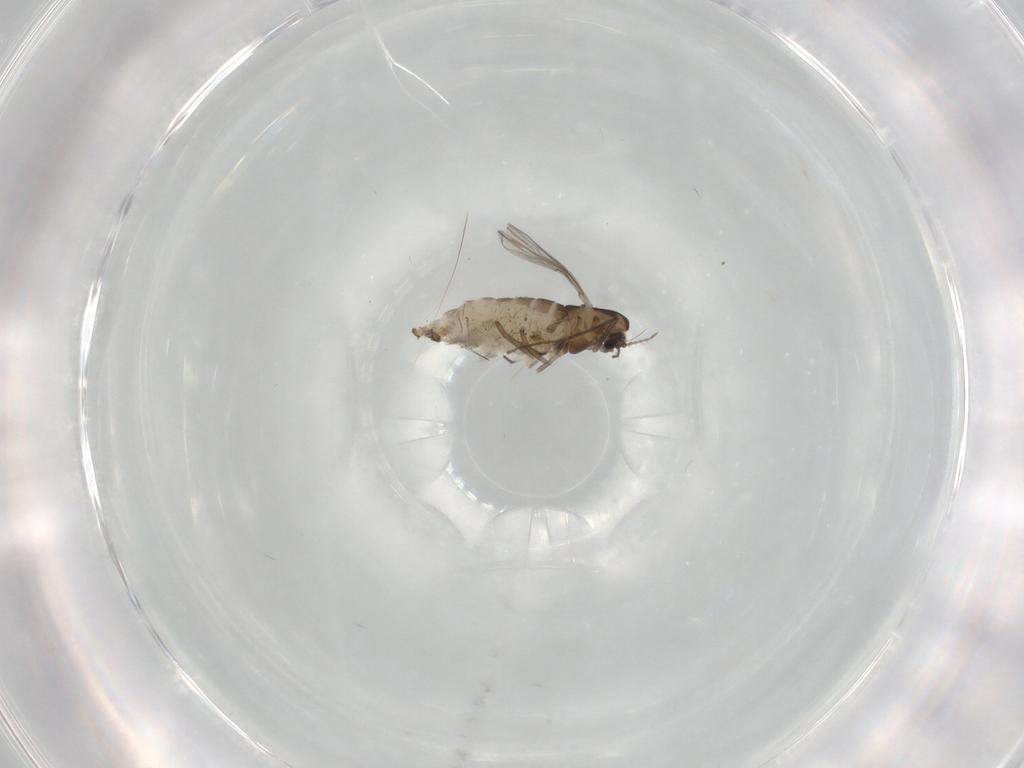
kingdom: Animalia
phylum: Arthropoda
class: Insecta
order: Diptera
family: Chironomidae
